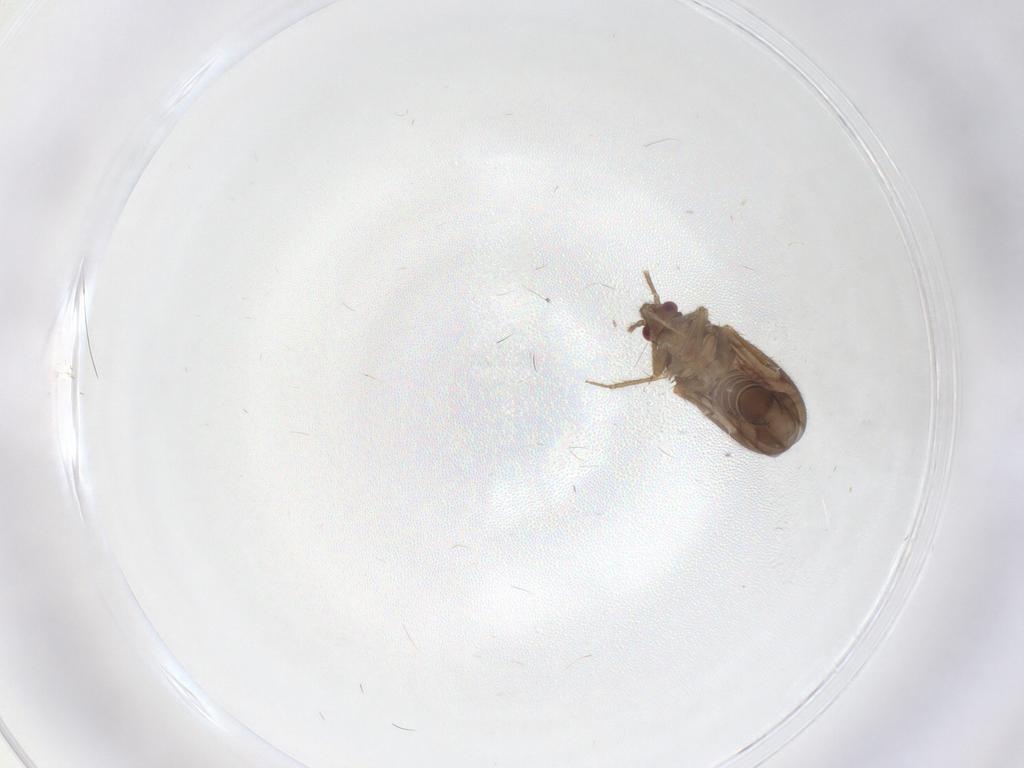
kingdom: Animalia
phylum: Arthropoda
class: Insecta
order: Hemiptera
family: Ceratocombidae
